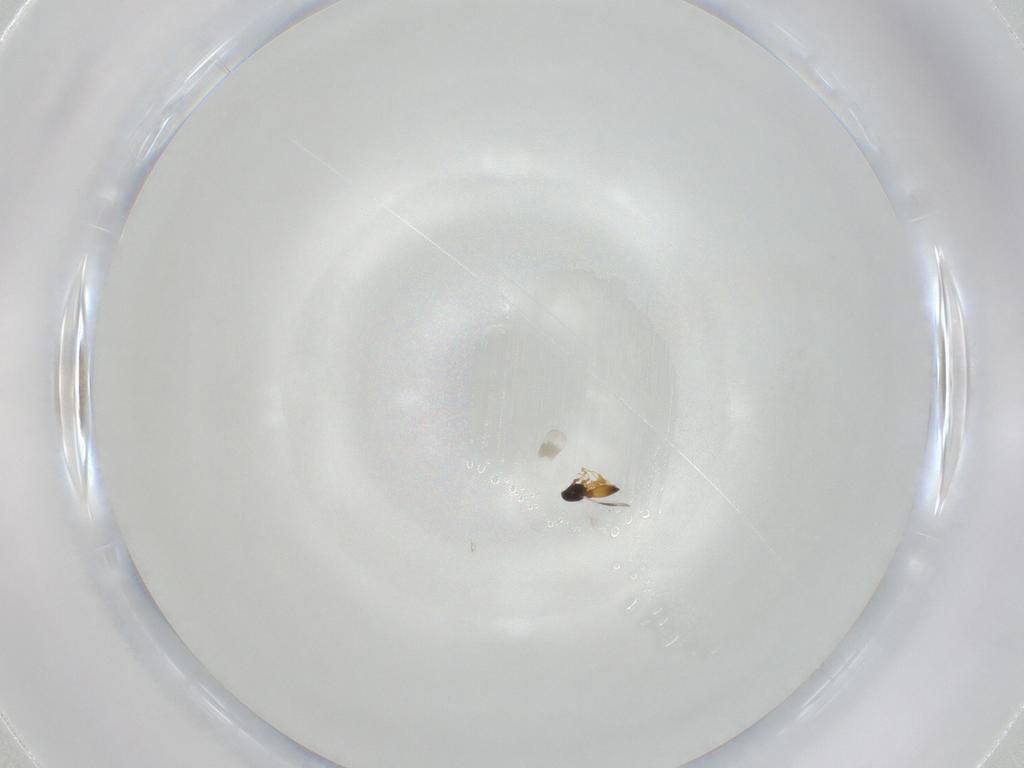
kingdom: Animalia
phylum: Arthropoda
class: Insecta
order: Hymenoptera
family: Platygastridae
